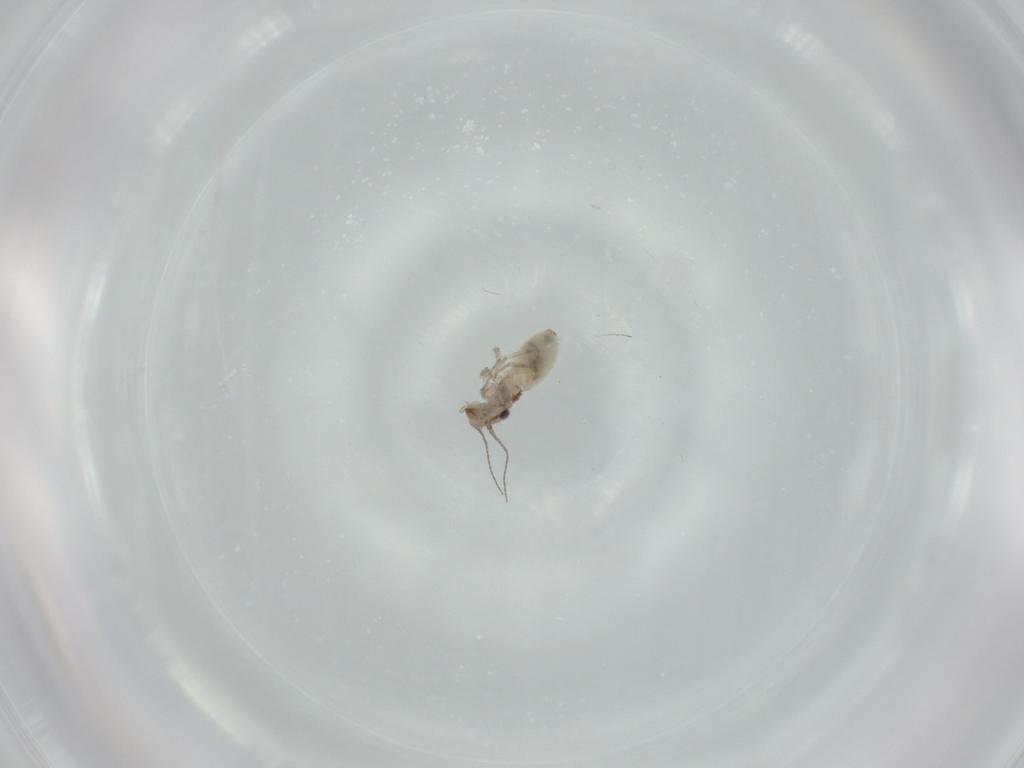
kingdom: Animalia
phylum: Arthropoda
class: Insecta
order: Psocodea
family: Lepidopsocidae
